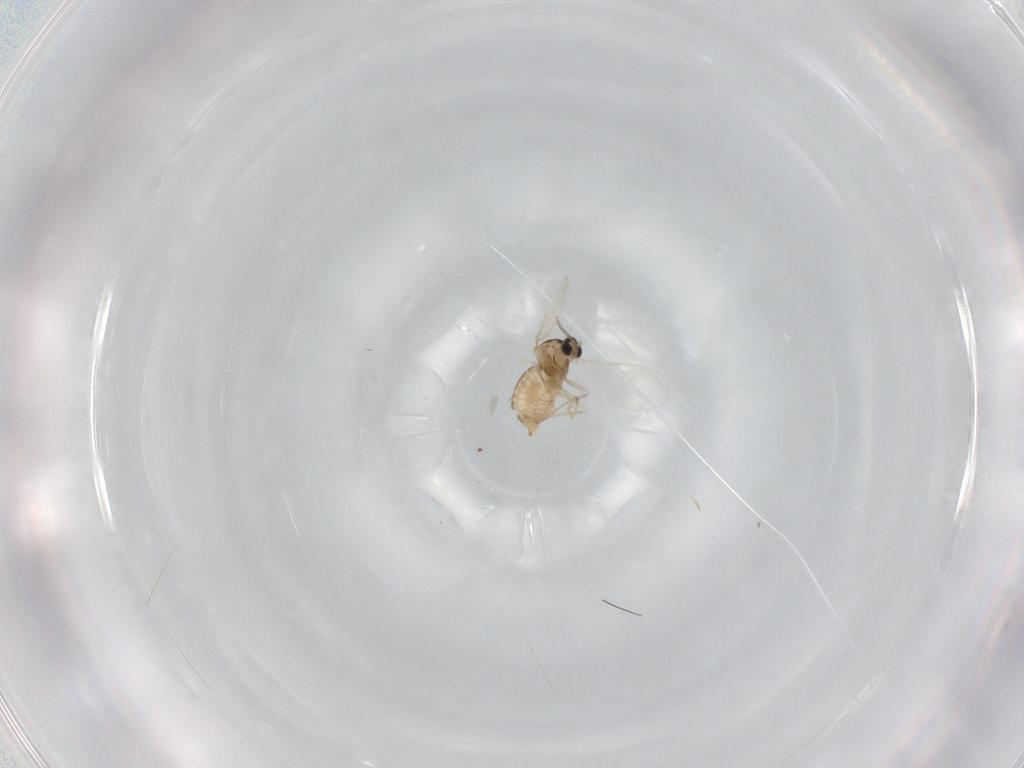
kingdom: Animalia
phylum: Arthropoda
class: Insecta
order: Diptera
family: Cecidomyiidae
